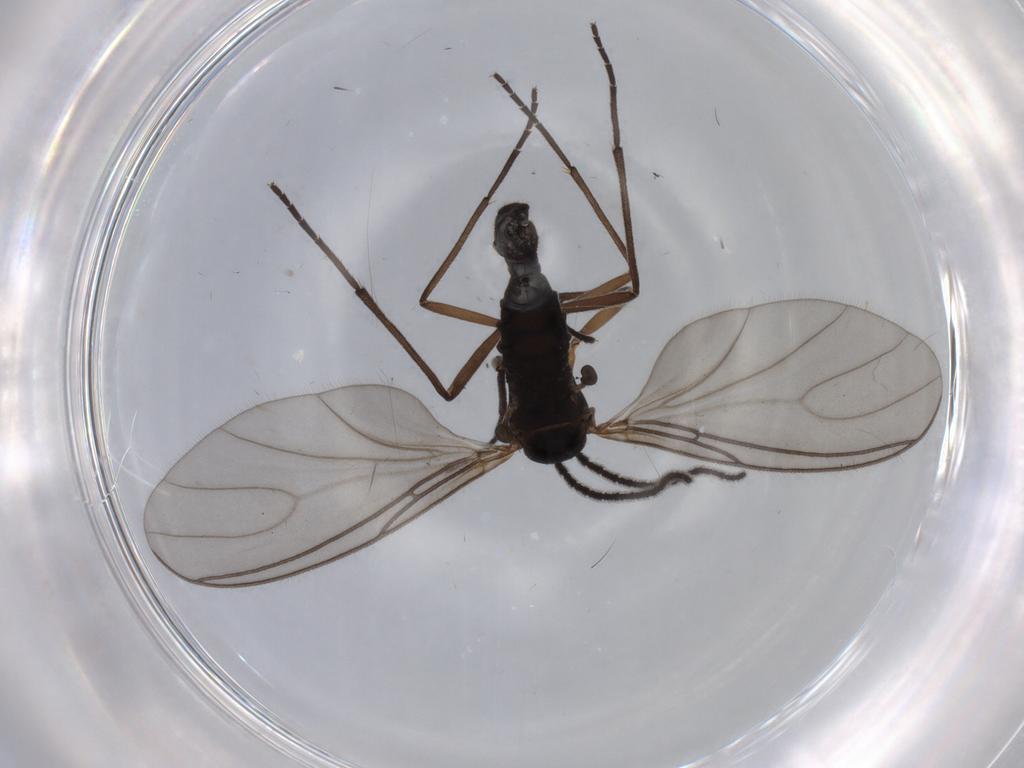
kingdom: Animalia
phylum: Arthropoda
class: Insecta
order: Diptera
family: Sciaridae
